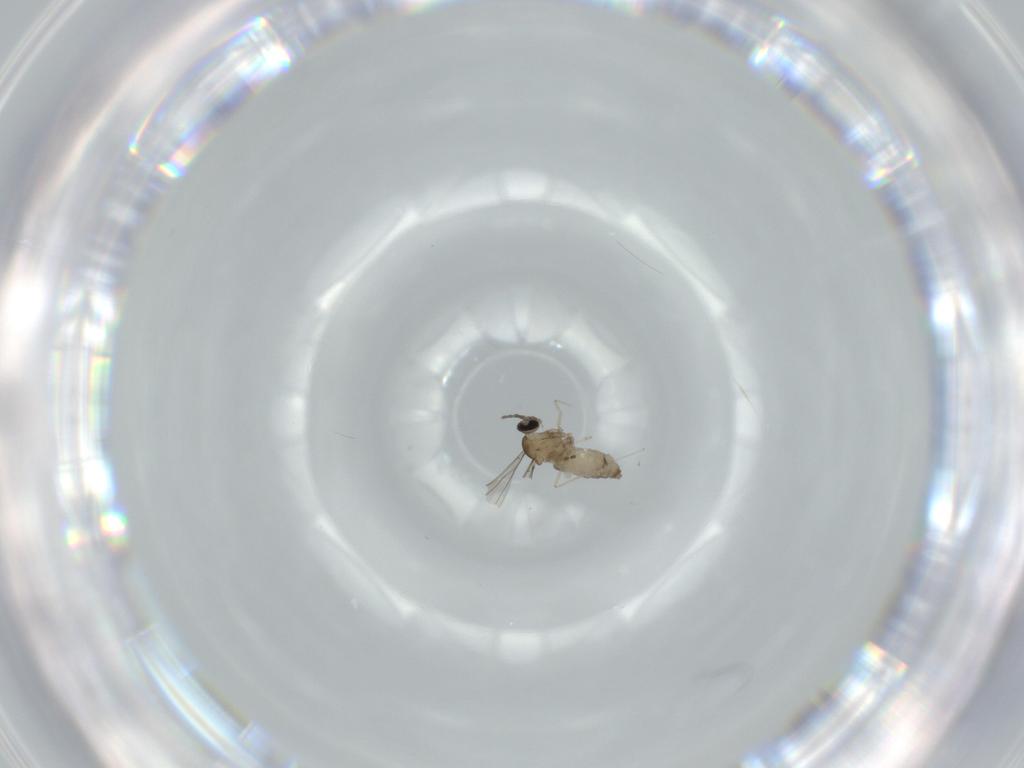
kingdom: Animalia
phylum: Arthropoda
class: Insecta
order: Diptera
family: Cecidomyiidae
